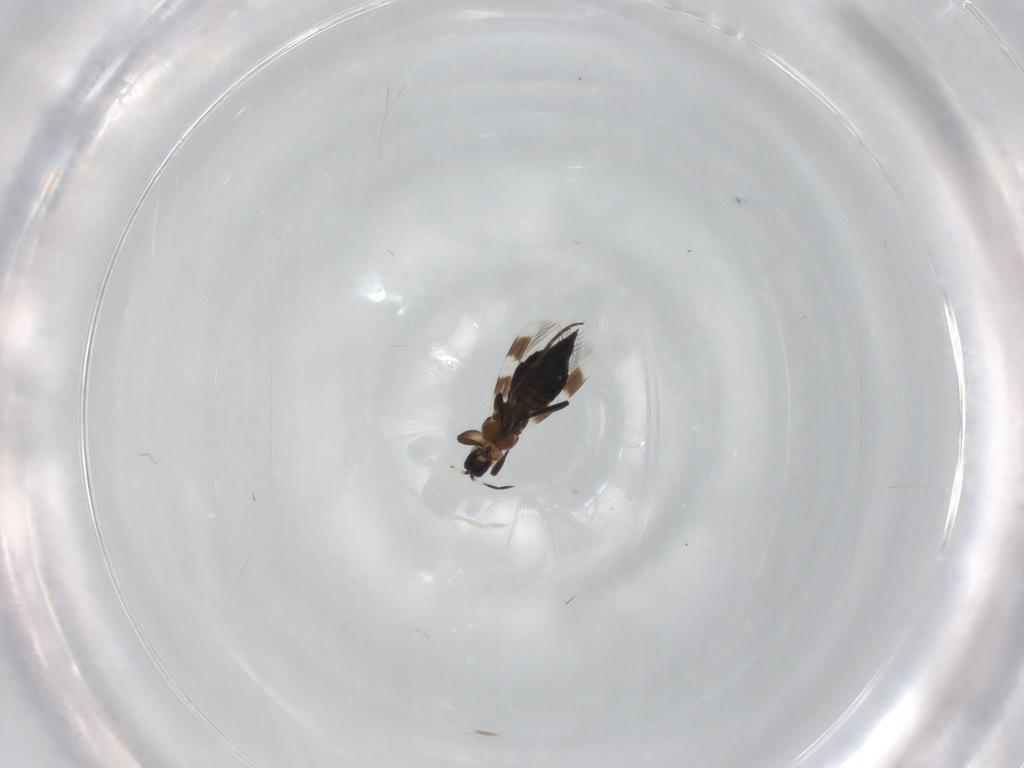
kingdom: Animalia
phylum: Arthropoda
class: Insecta
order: Thysanoptera
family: Aeolothripidae
